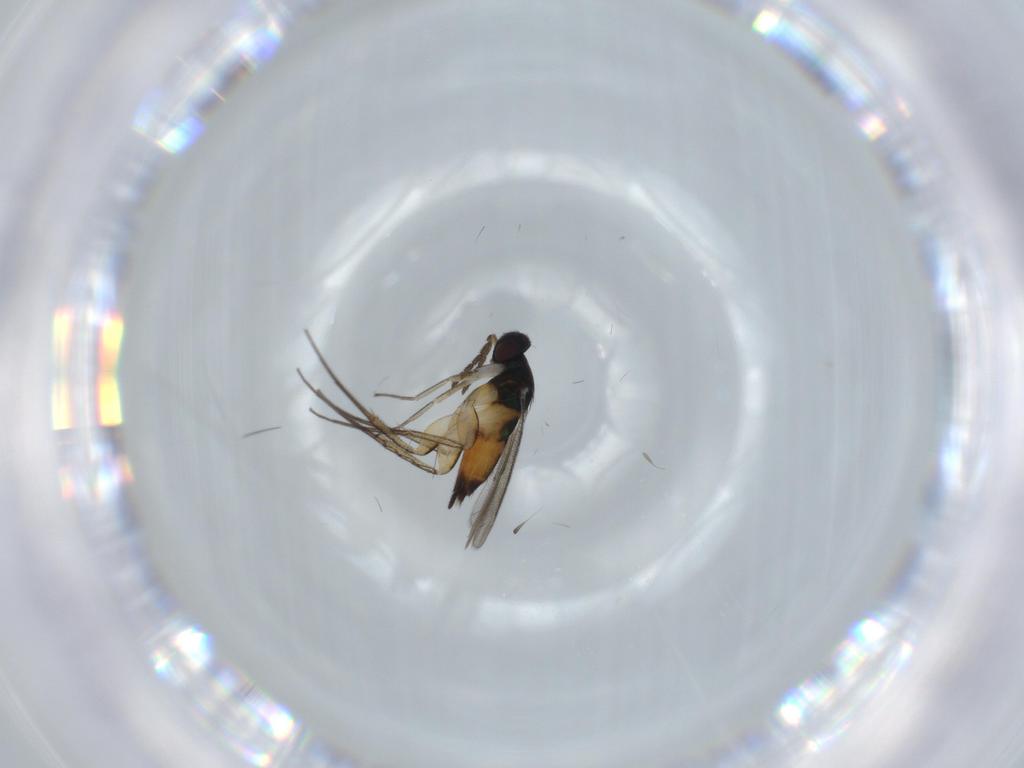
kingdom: Animalia
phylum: Arthropoda
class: Insecta
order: Hymenoptera
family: Eulophidae
